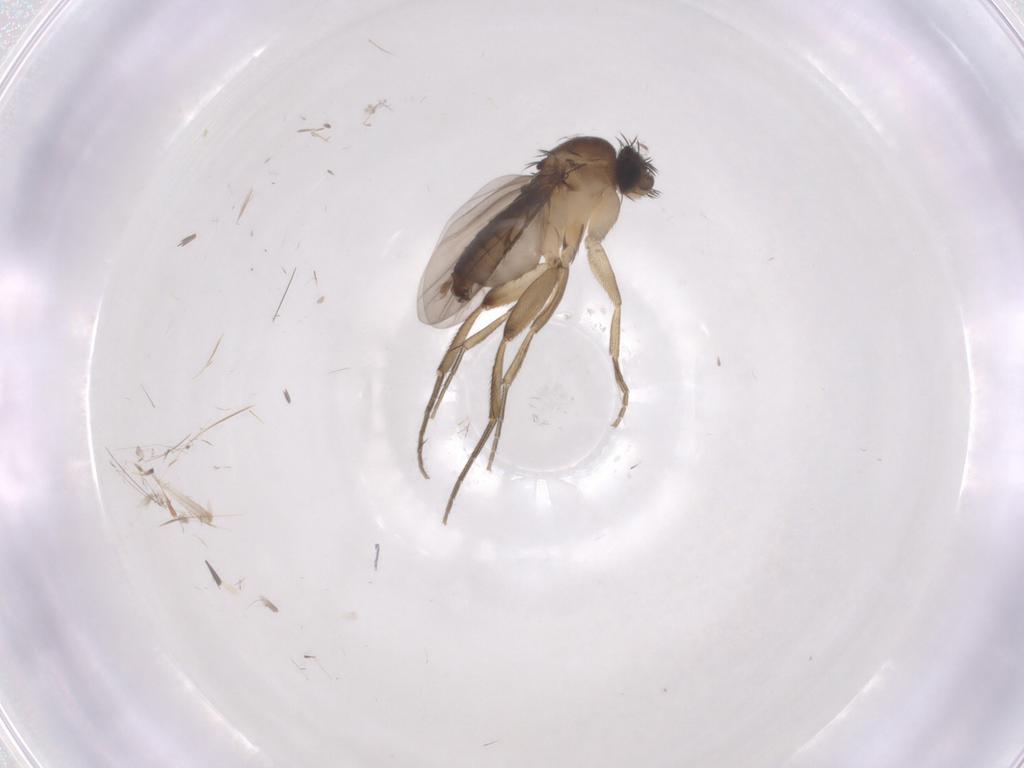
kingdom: Animalia
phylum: Arthropoda
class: Insecta
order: Diptera
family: Phoridae
